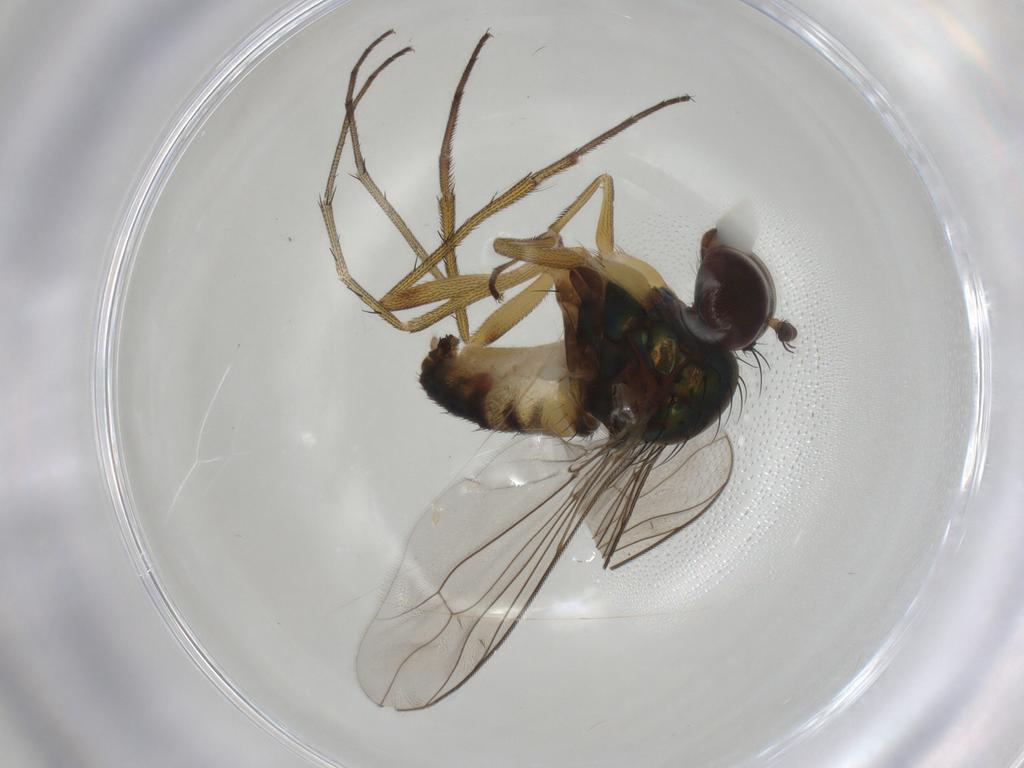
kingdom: Animalia
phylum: Arthropoda
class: Insecta
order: Diptera
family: Dolichopodidae
